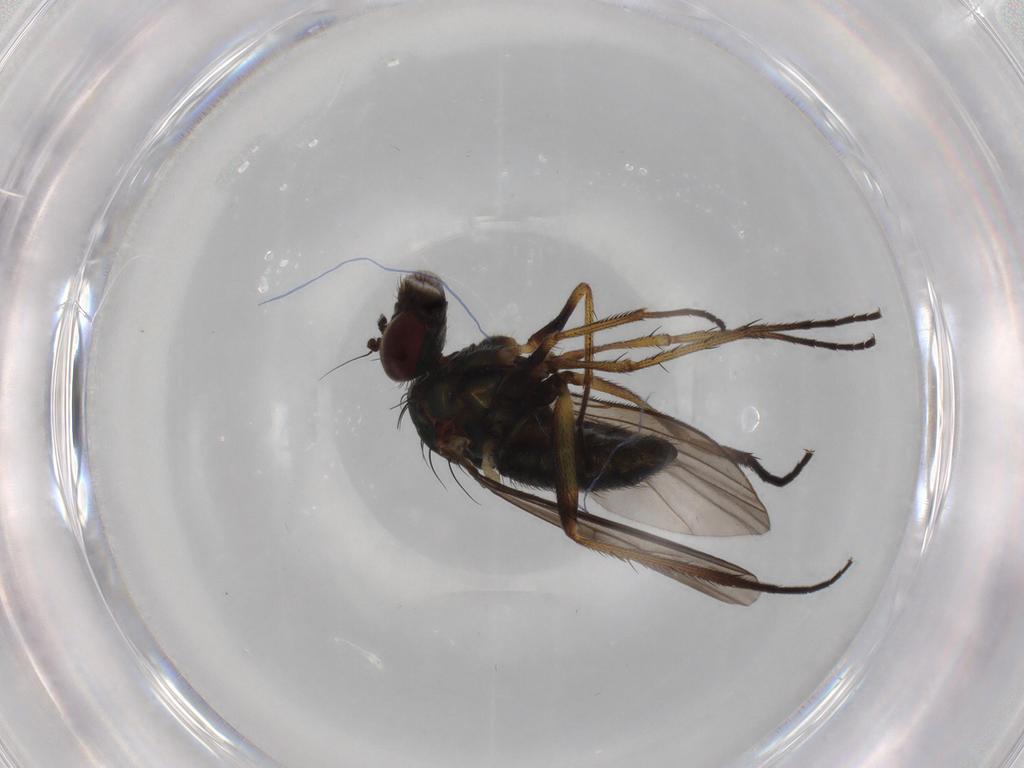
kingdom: Animalia
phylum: Arthropoda
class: Insecta
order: Diptera
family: Dolichopodidae
